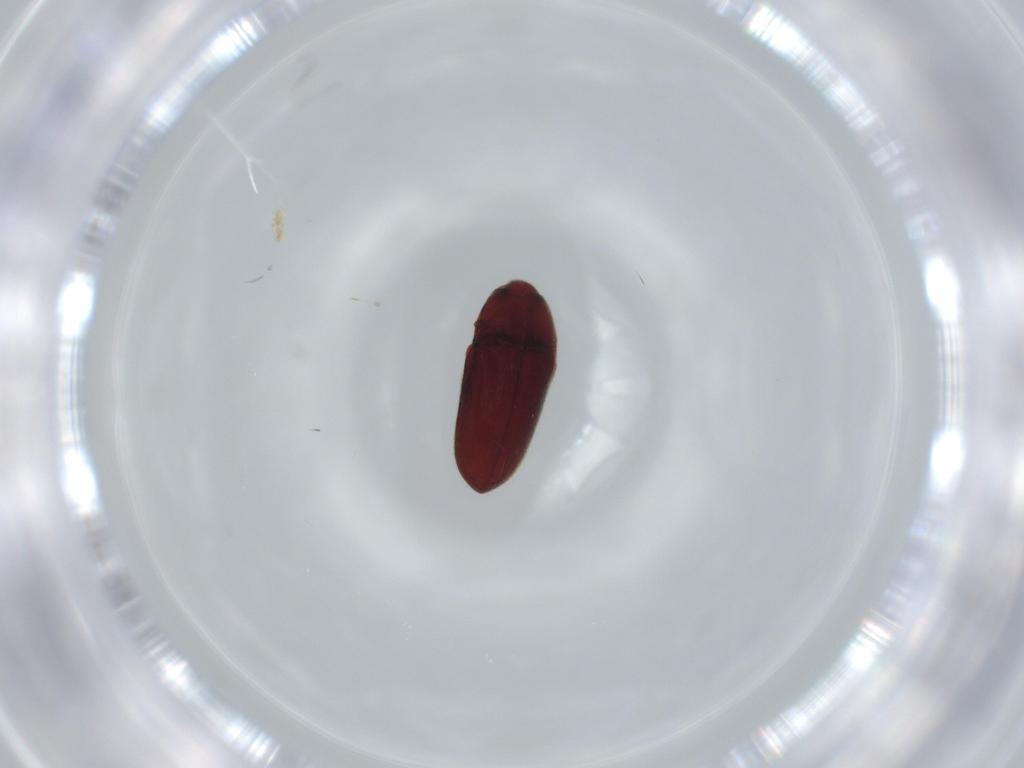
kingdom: Animalia
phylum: Arthropoda
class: Insecta
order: Coleoptera
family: Throscidae
